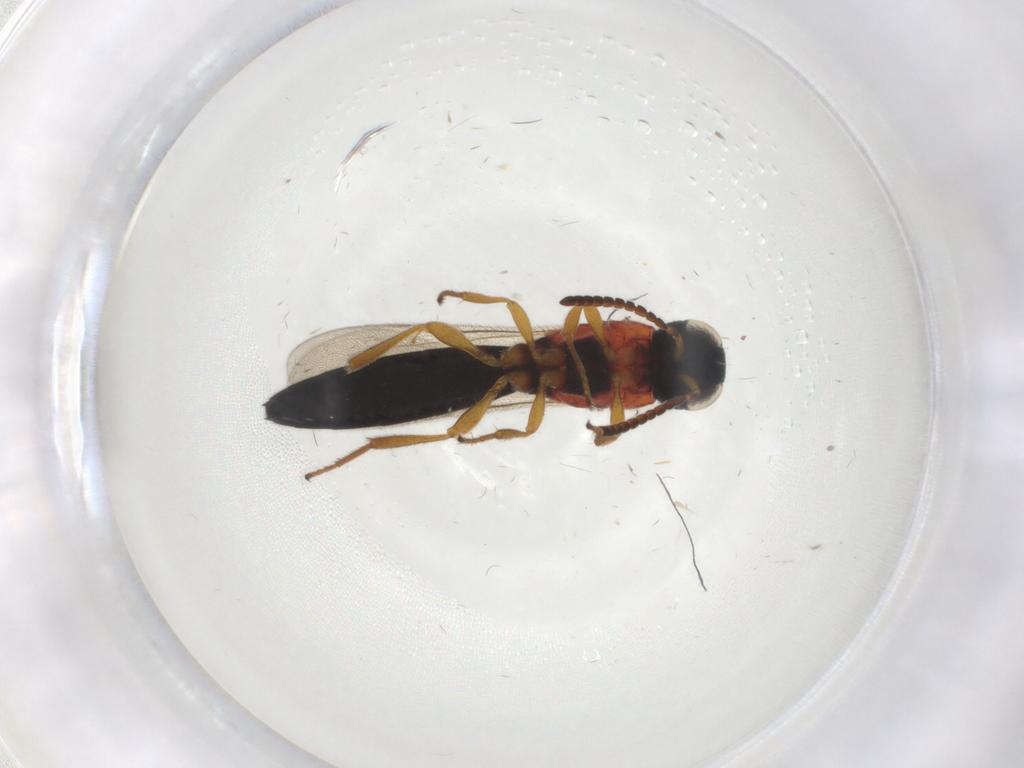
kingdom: Animalia
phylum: Arthropoda
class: Insecta
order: Hymenoptera
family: Scelionidae
